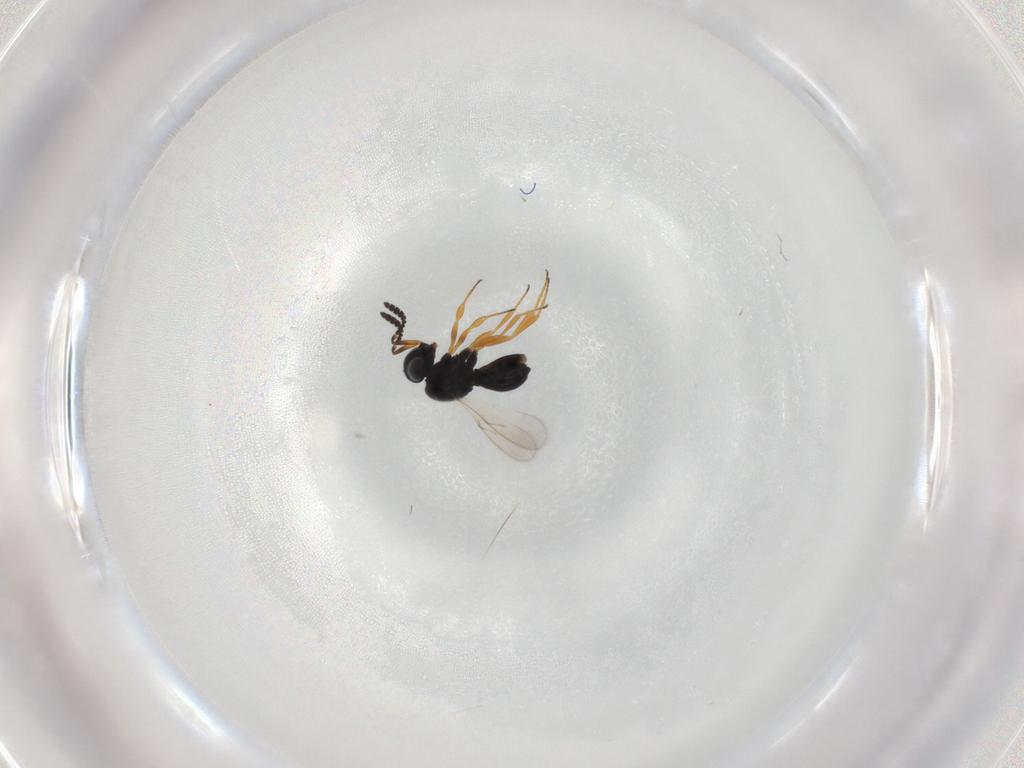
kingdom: Animalia
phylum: Arthropoda
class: Insecta
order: Hymenoptera
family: Scelionidae
